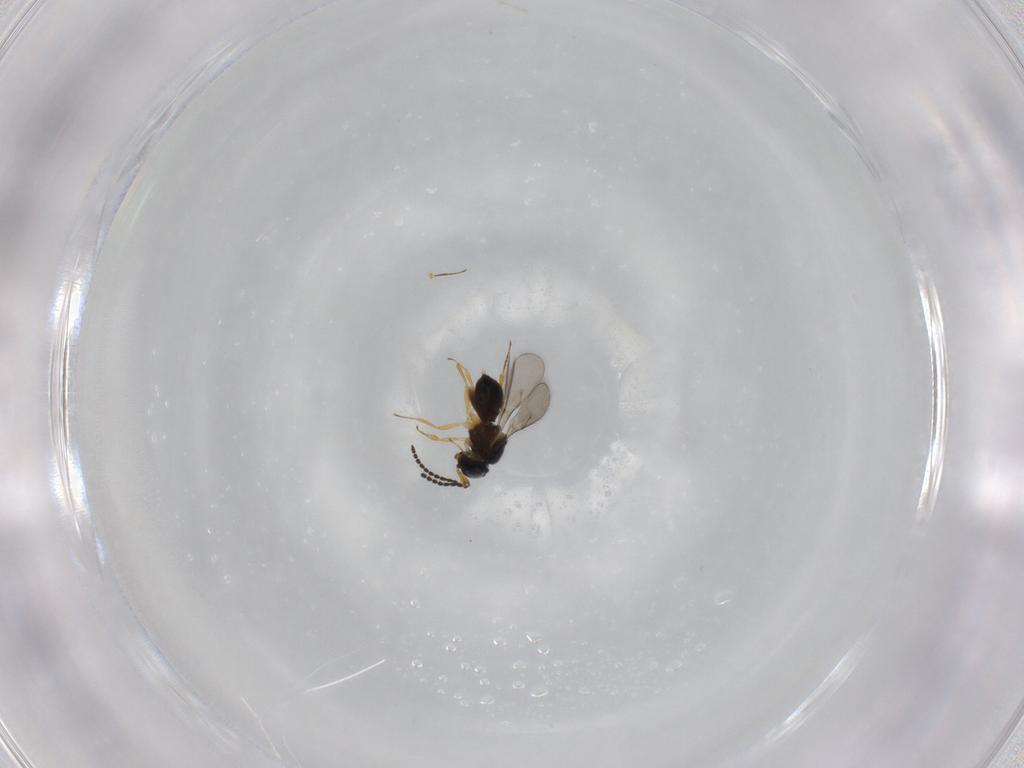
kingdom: Animalia
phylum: Arthropoda
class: Insecta
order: Hymenoptera
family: Scelionidae
